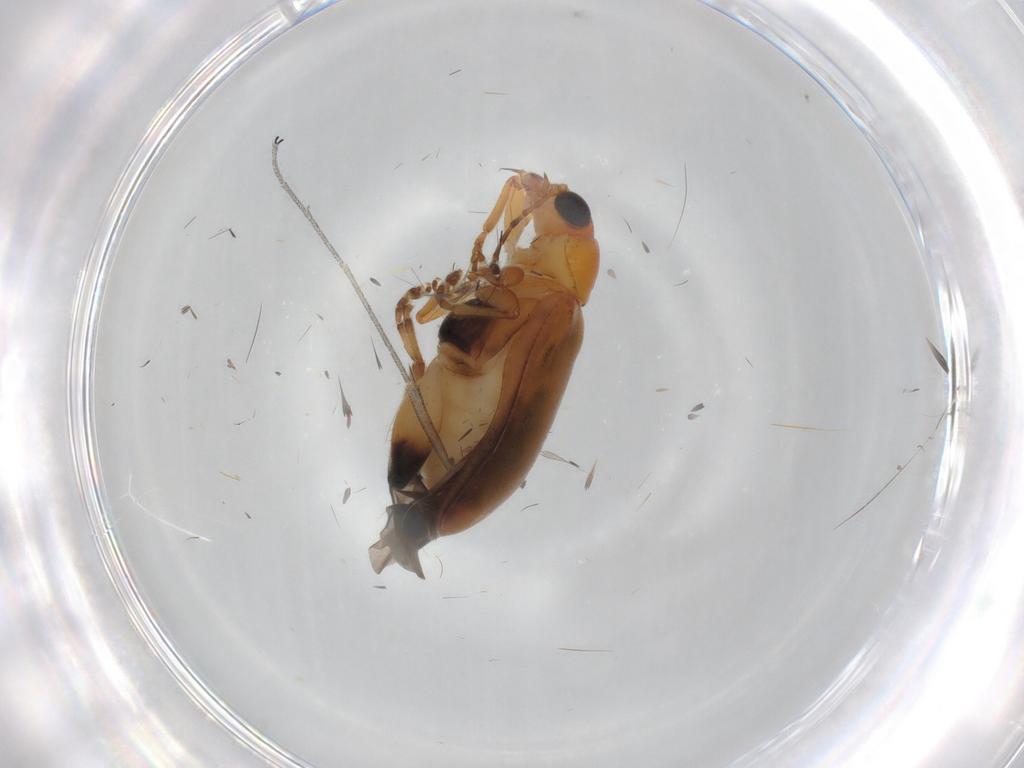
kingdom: Animalia
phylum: Arthropoda
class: Insecta
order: Coleoptera
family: Chrysomelidae
